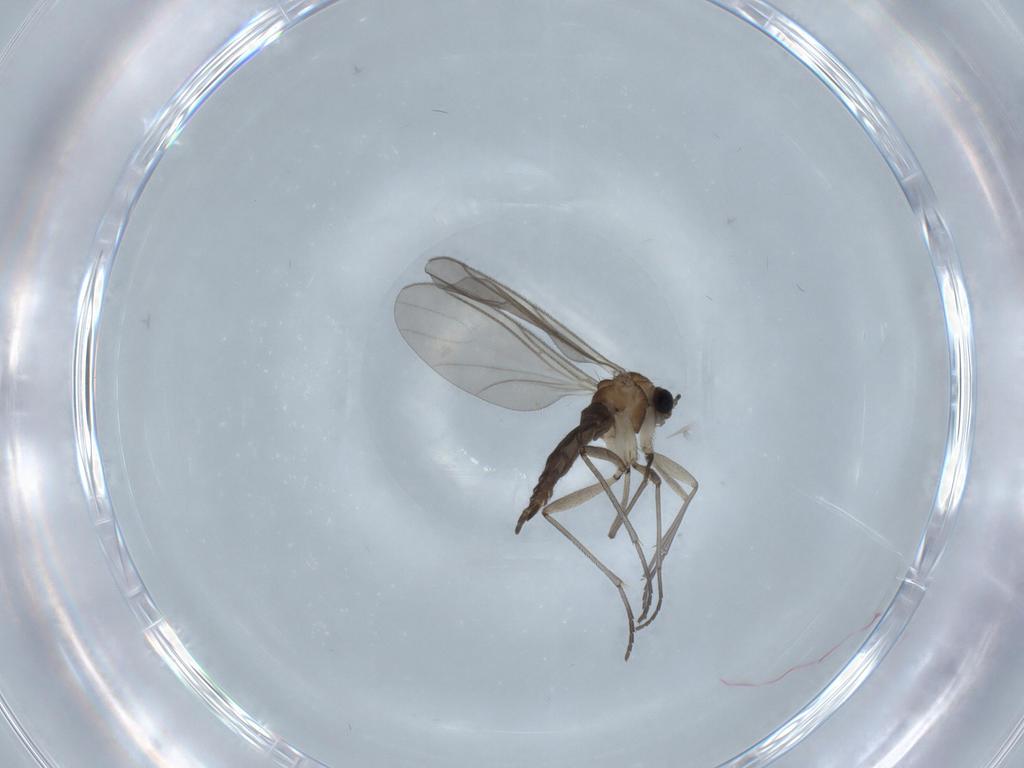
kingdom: Animalia
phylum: Arthropoda
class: Insecta
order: Diptera
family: Sciaridae
